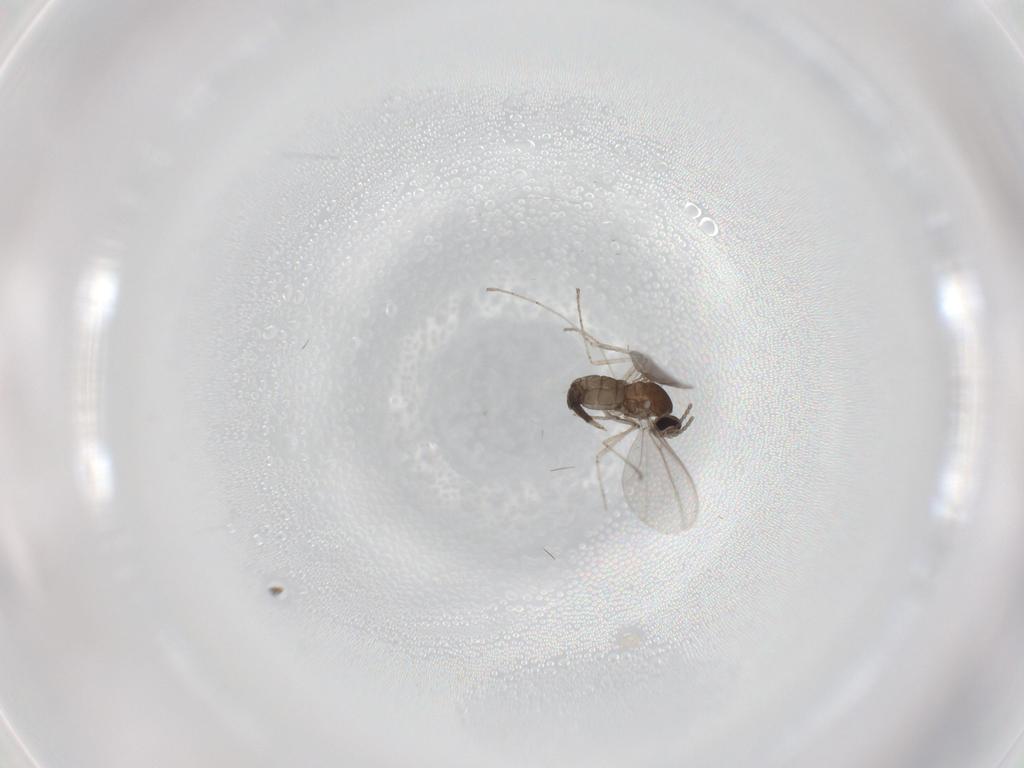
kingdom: Animalia
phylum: Arthropoda
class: Insecta
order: Diptera
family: Cecidomyiidae
